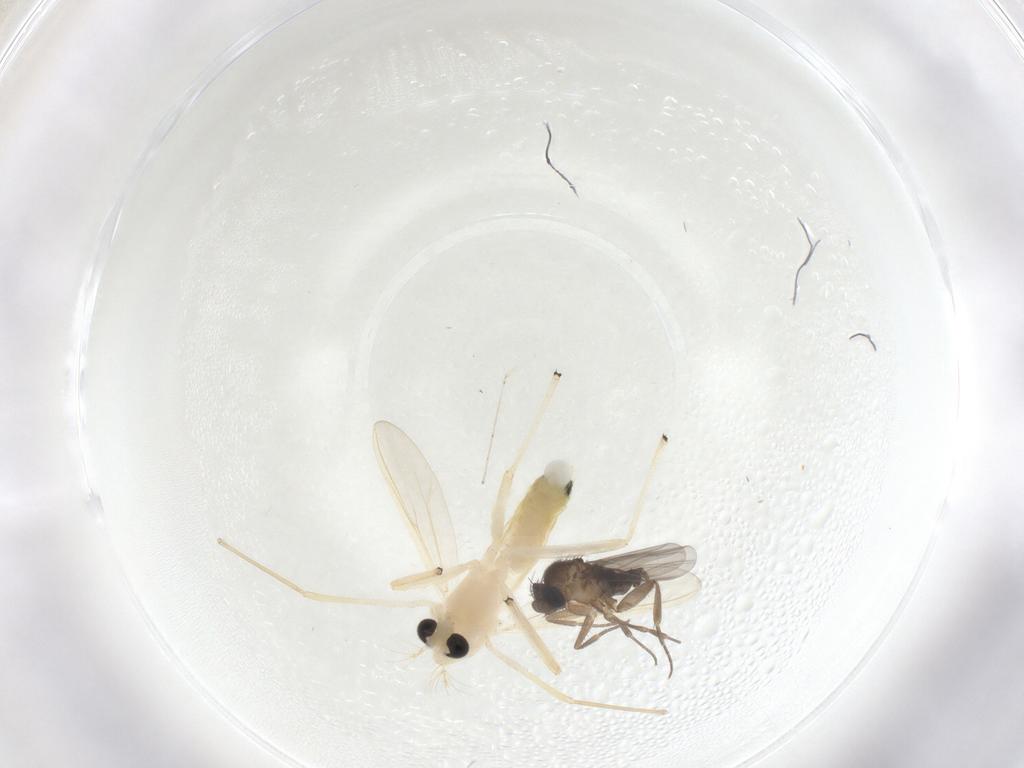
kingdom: Animalia
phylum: Arthropoda
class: Insecta
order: Diptera
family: Chironomidae
